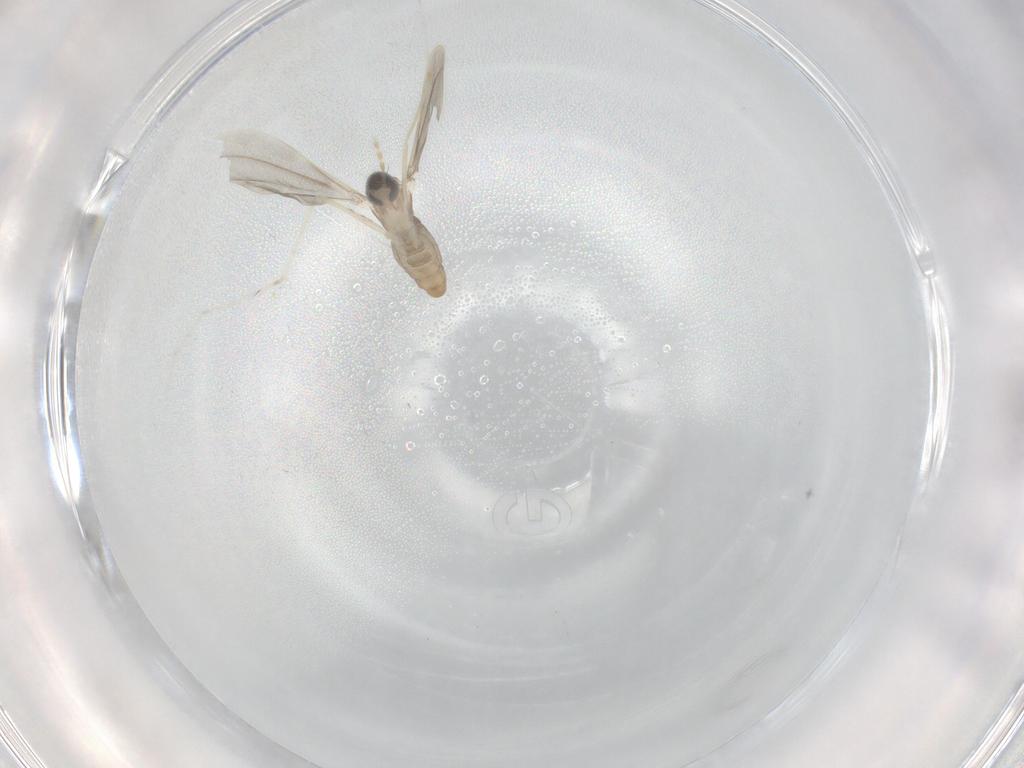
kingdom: Animalia
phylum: Arthropoda
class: Insecta
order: Diptera
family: Cecidomyiidae
